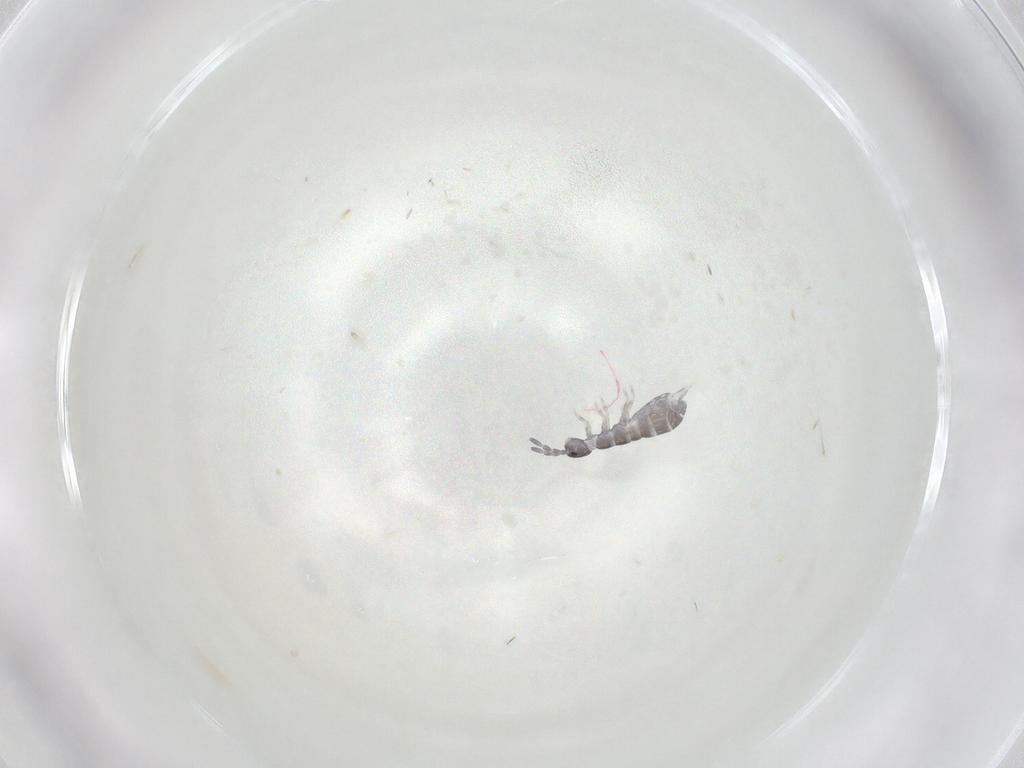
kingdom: Animalia
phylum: Arthropoda
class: Collembola
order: Entomobryomorpha
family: Isotomidae
